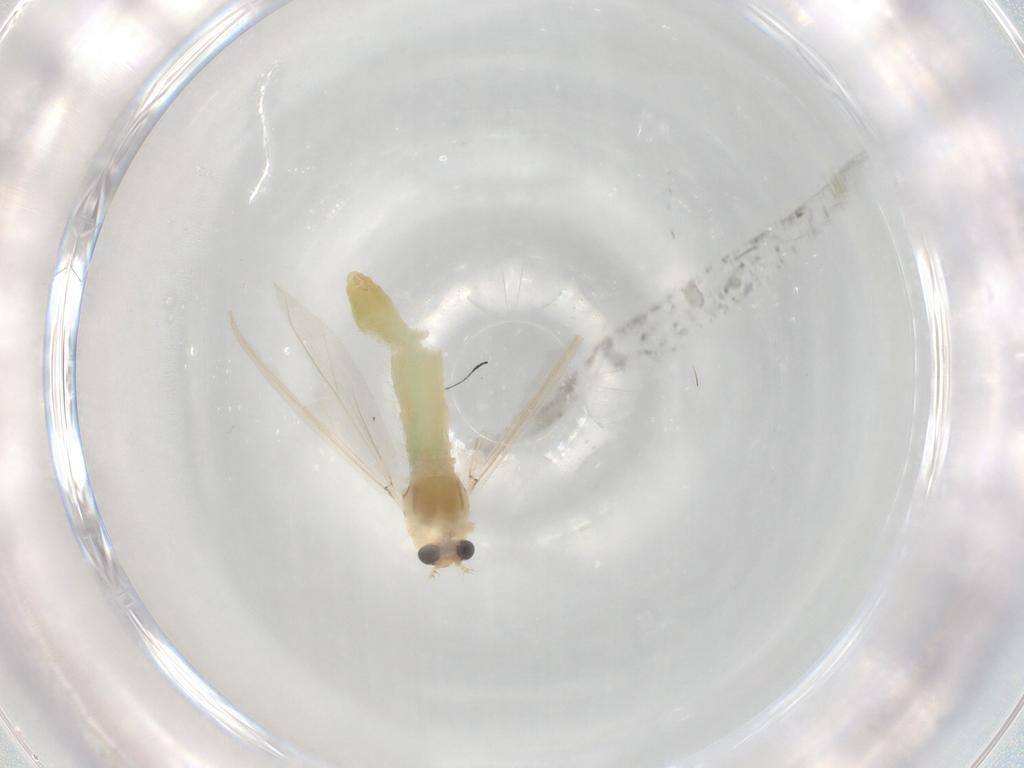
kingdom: Animalia
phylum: Arthropoda
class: Insecta
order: Diptera
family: Chironomidae
